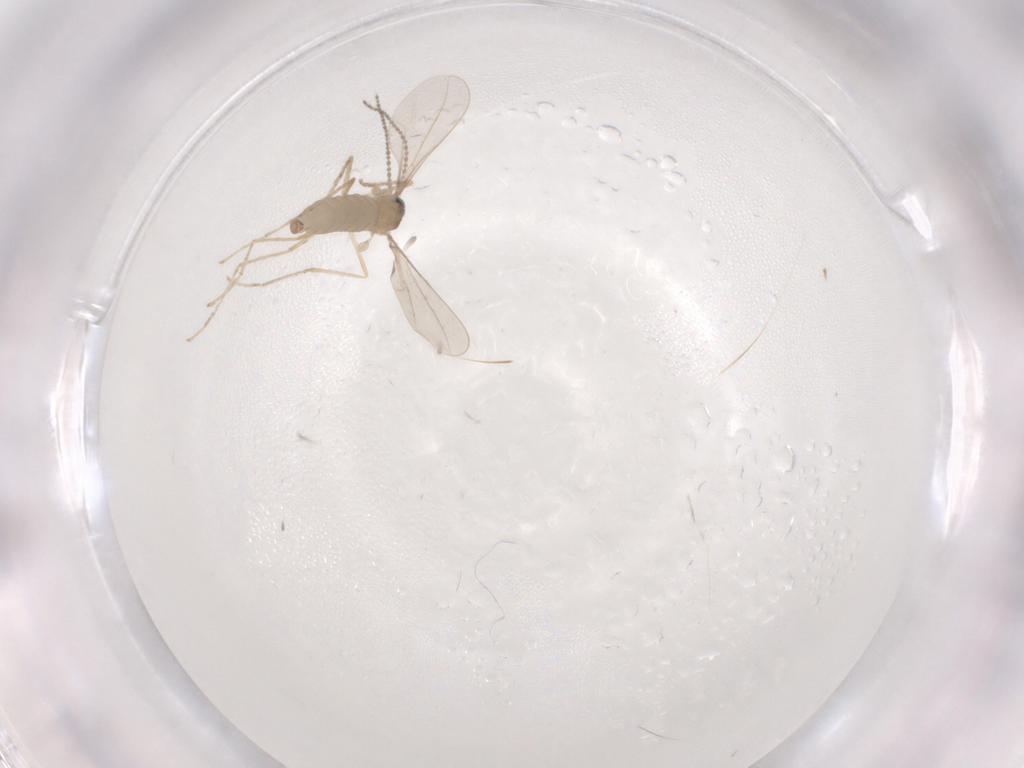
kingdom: Animalia
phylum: Arthropoda
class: Insecta
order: Diptera
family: Cecidomyiidae
